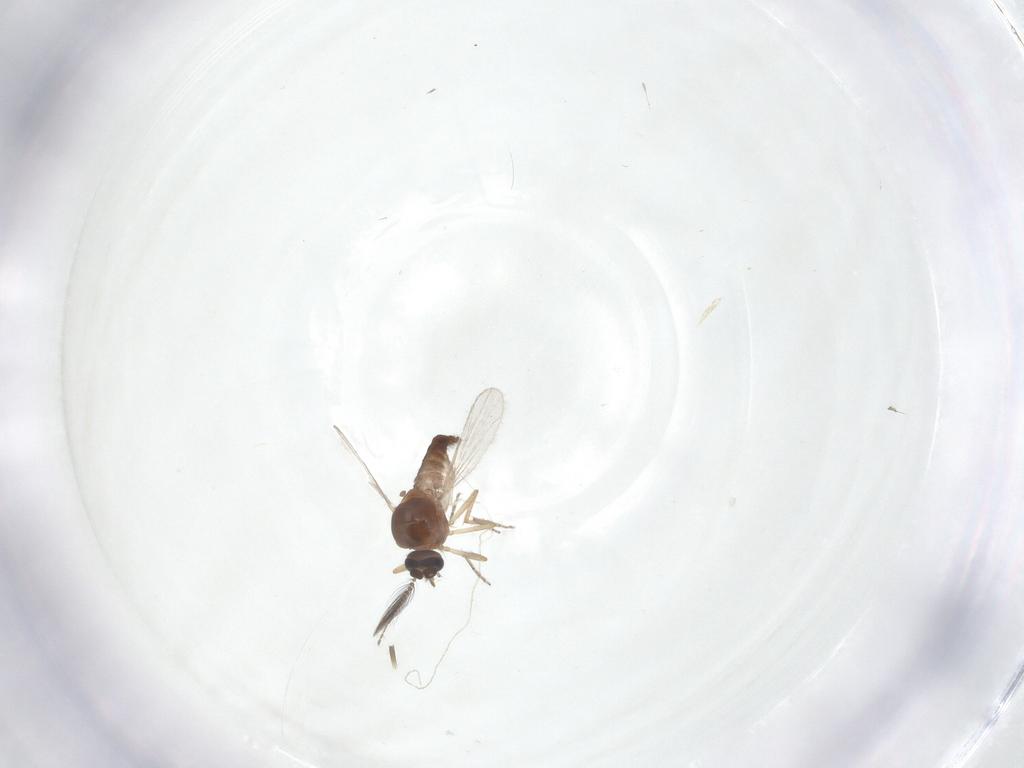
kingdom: Animalia
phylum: Arthropoda
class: Insecta
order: Diptera
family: Ceratopogonidae
